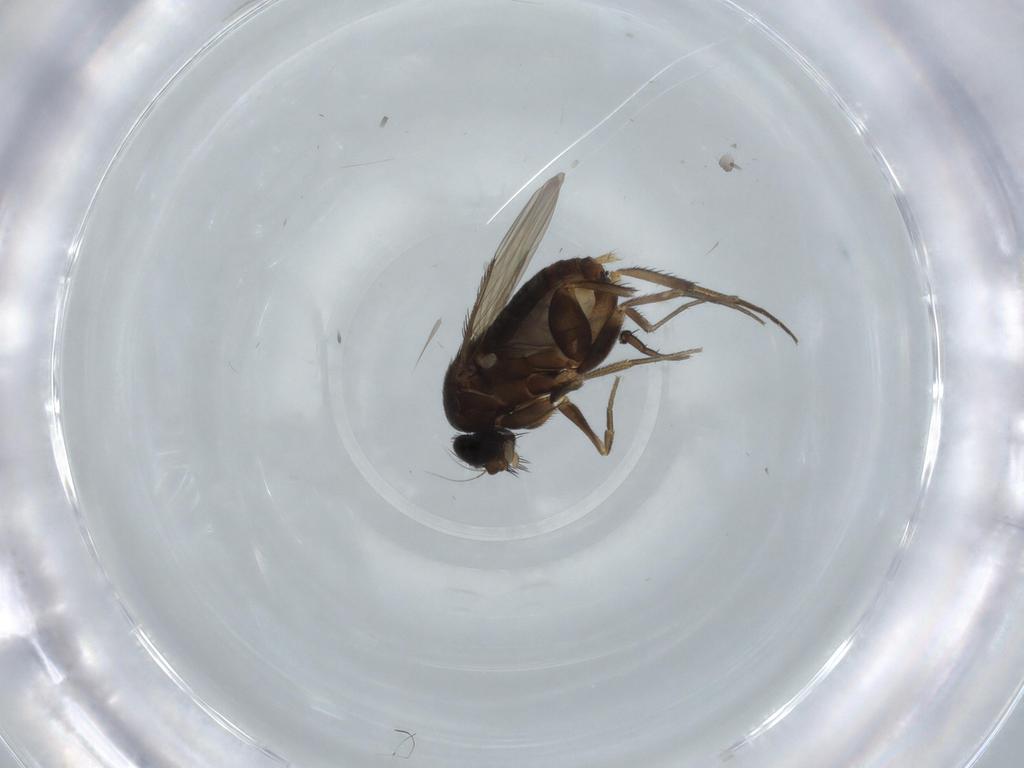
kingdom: Animalia
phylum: Arthropoda
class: Insecta
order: Diptera
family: Phoridae
